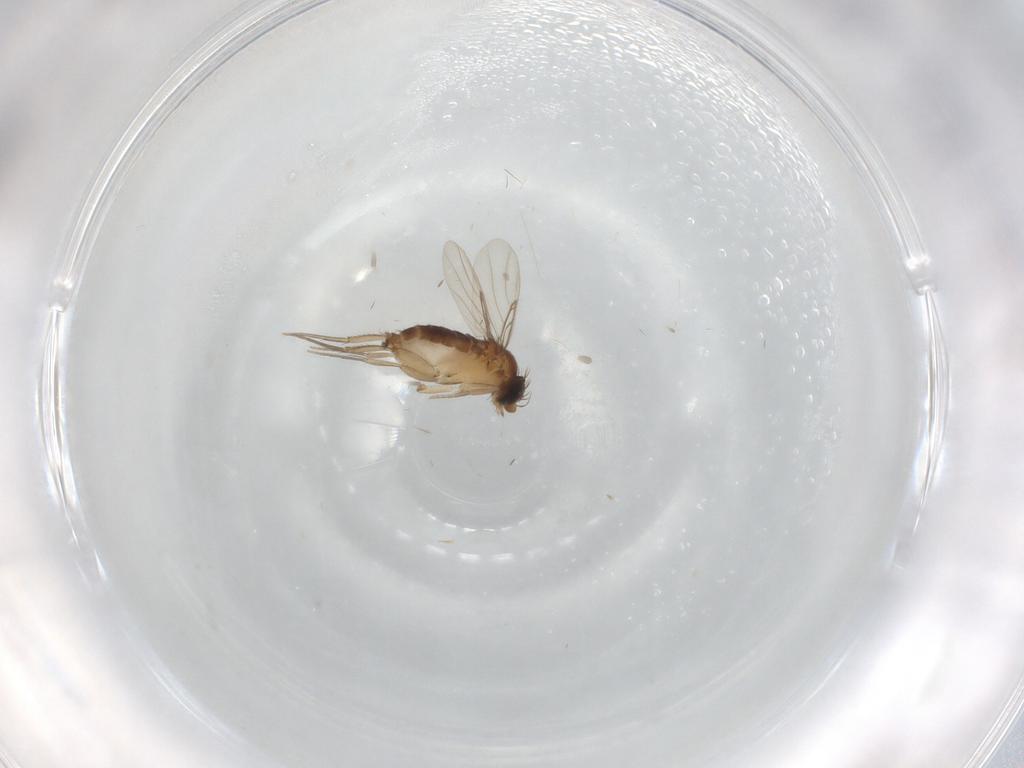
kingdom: Animalia
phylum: Arthropoda
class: Insecta
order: Diptera
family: Phoridae
